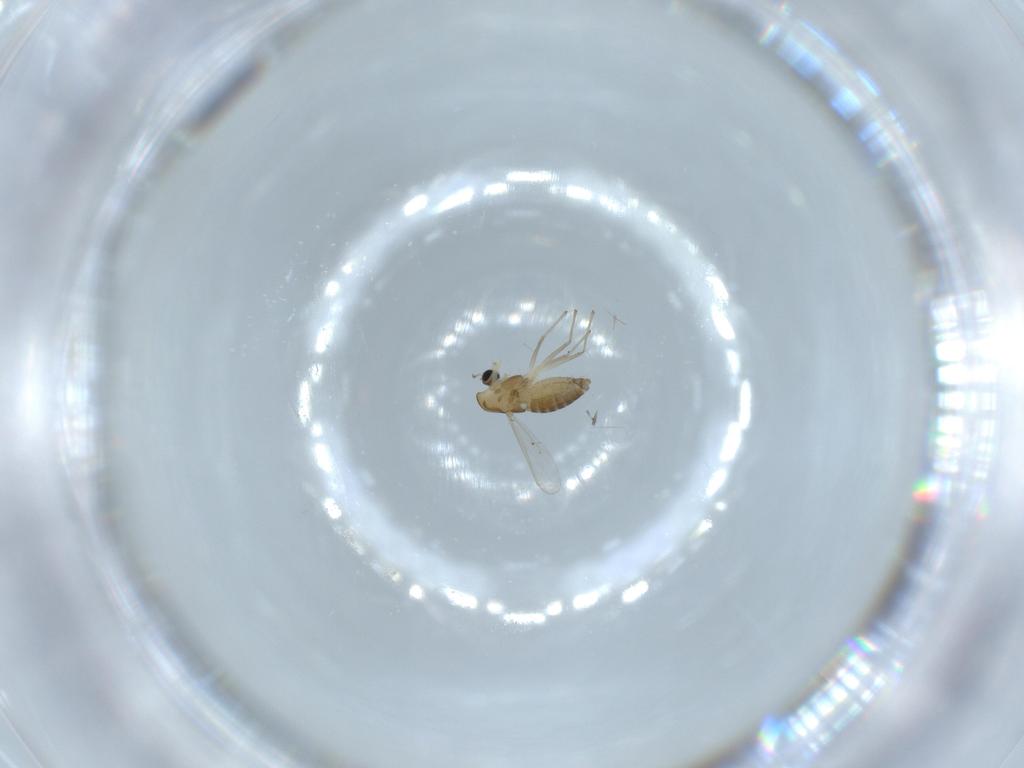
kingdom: Animalia
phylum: Arthropoda
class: Insecta
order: Diptera
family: Chironomidae
